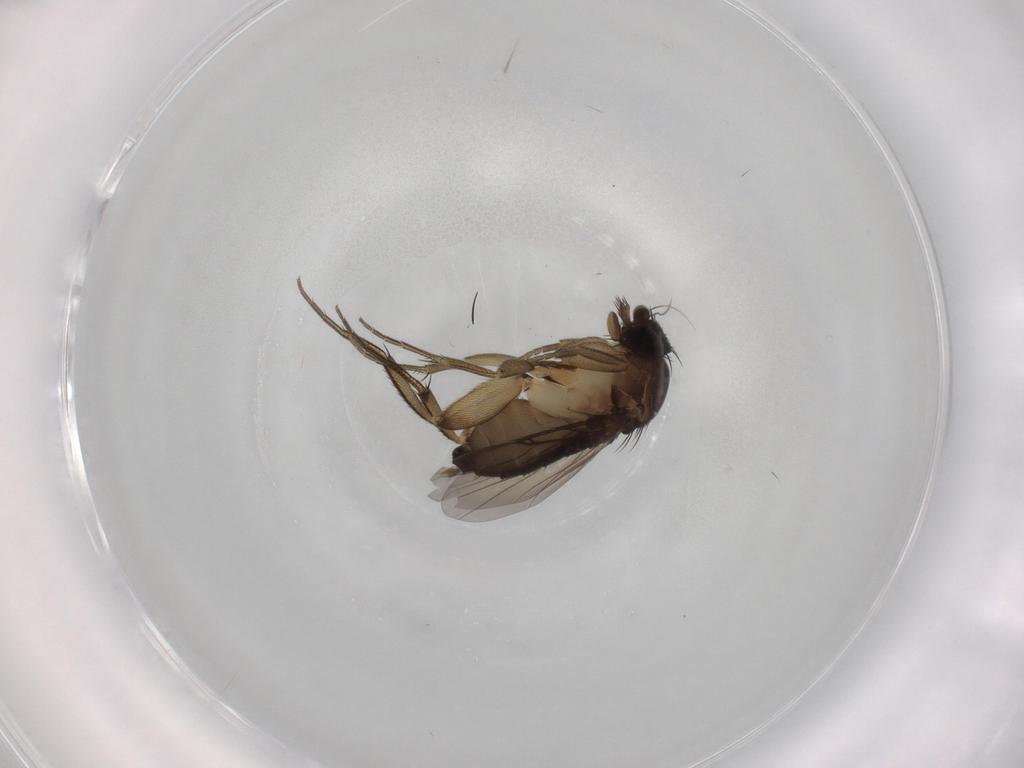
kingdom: Animalia
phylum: Arthropoda
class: Insecta
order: Diptera
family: Phoridae
